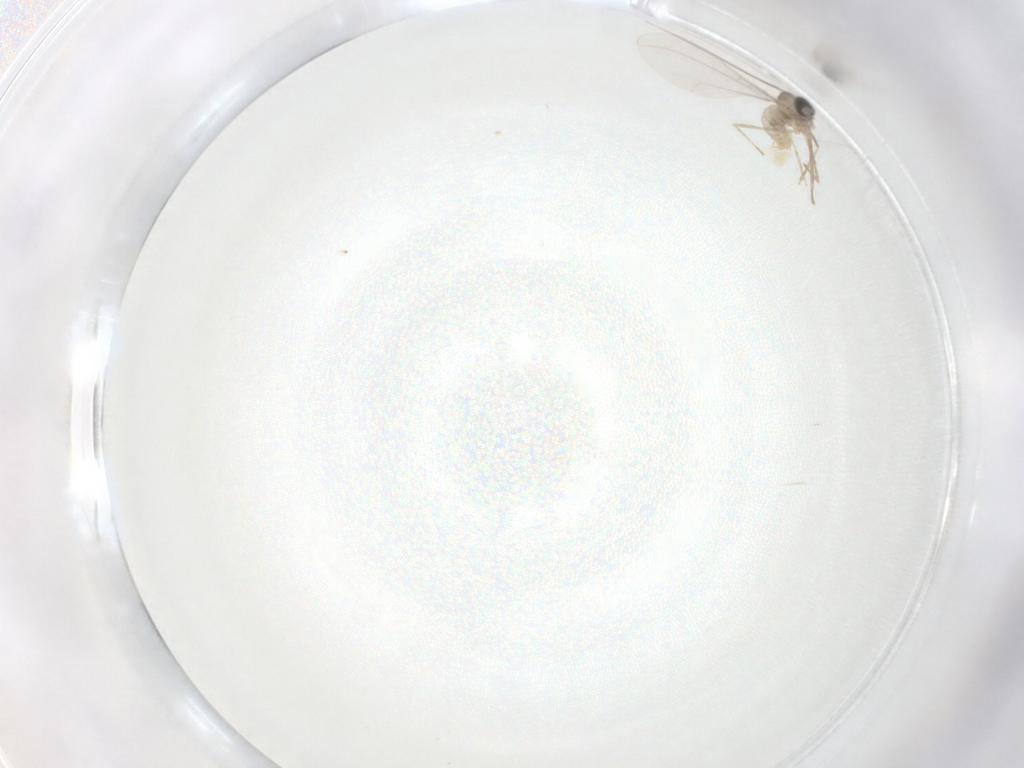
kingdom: Animalia
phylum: Arthropoda
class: Insecta
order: Diptera
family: Cecidomyiidae
